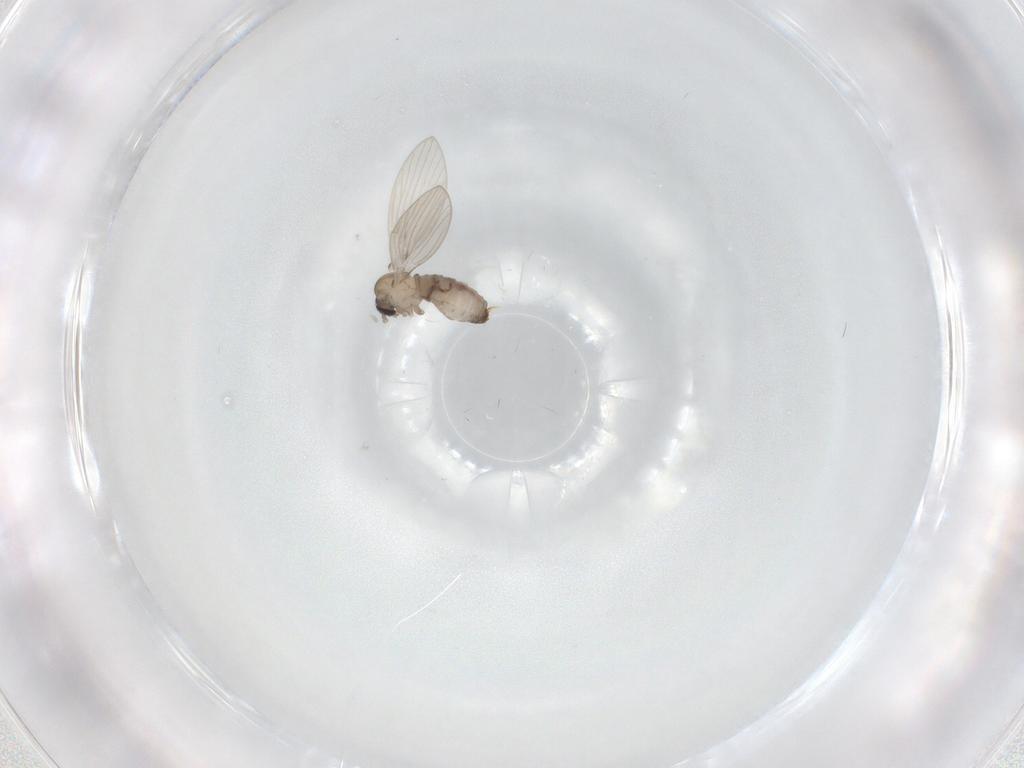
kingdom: Animalia
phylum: Arthropoda
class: Insecta
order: Diptera
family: Psychodidae
